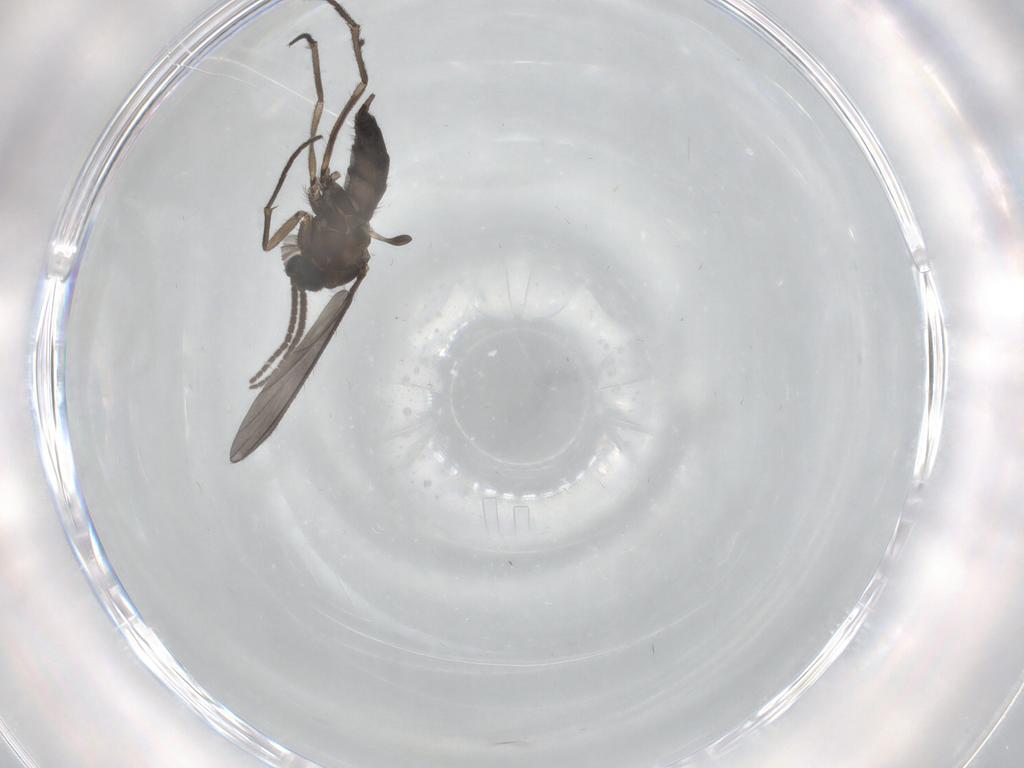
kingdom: Animalia
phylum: Arthropoda
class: Insecta
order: Diptera
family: Sciaridae
